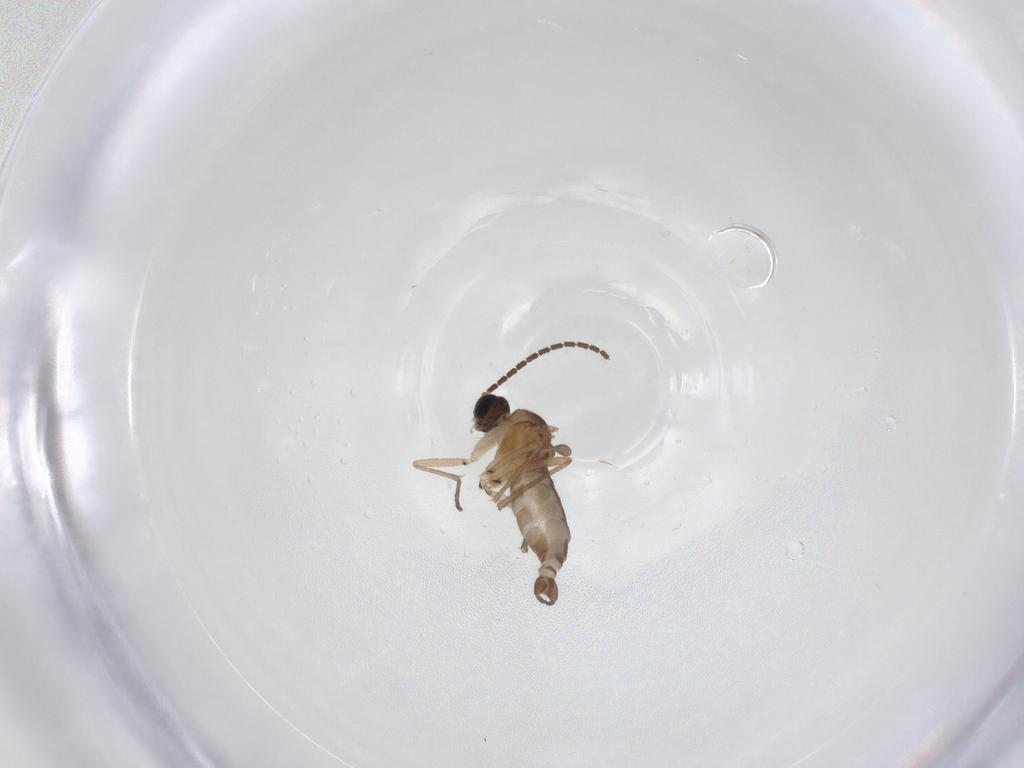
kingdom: Animalia
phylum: Arthropoda
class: Insecta
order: Diptera
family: Sciaridae
